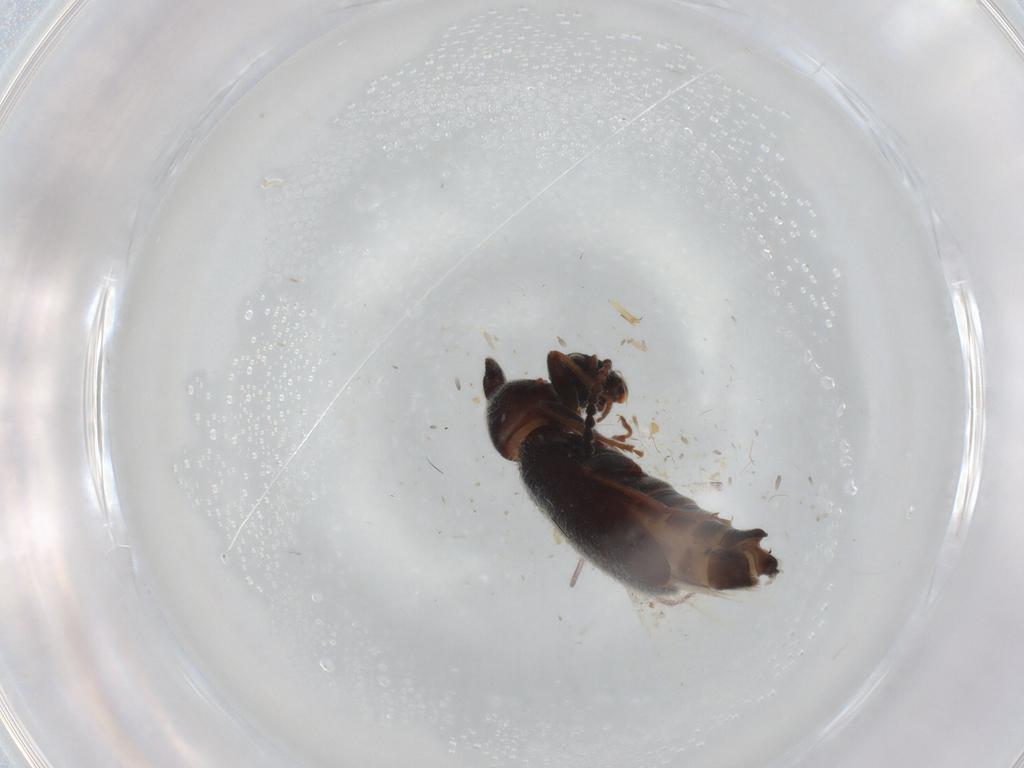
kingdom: Animalia
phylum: Arthropoda
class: Insecta
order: Coleoptera
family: Anthicidae
